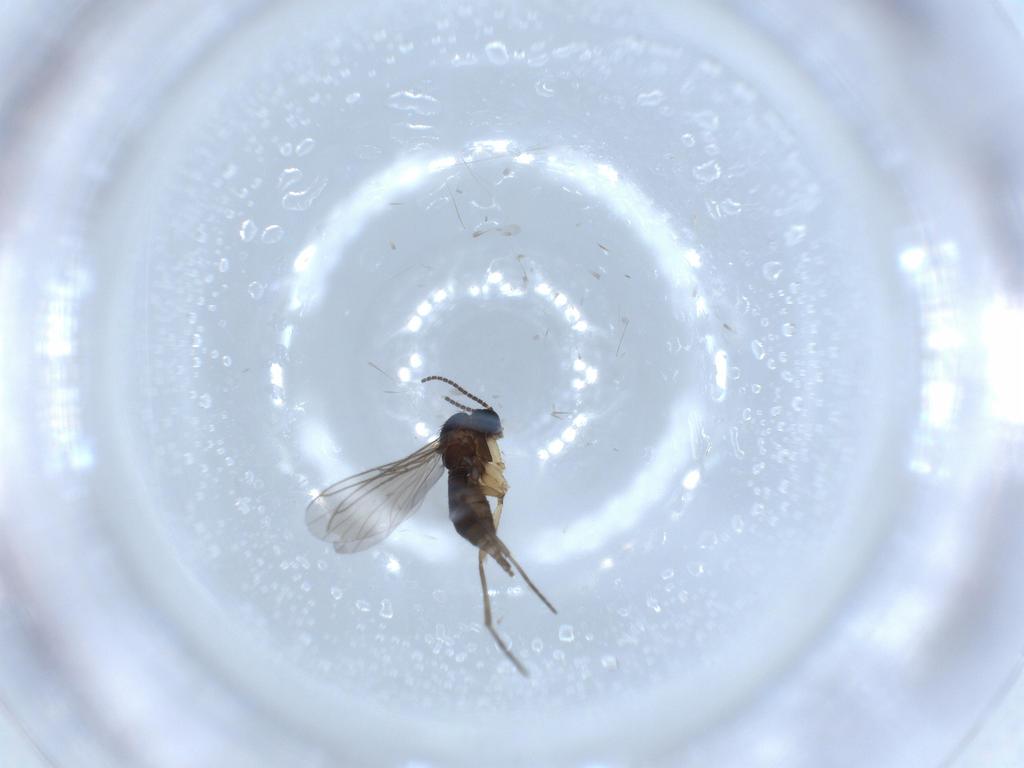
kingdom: Animalia
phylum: Arthropoda
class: Insecta
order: Diptera
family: Sciaridae
